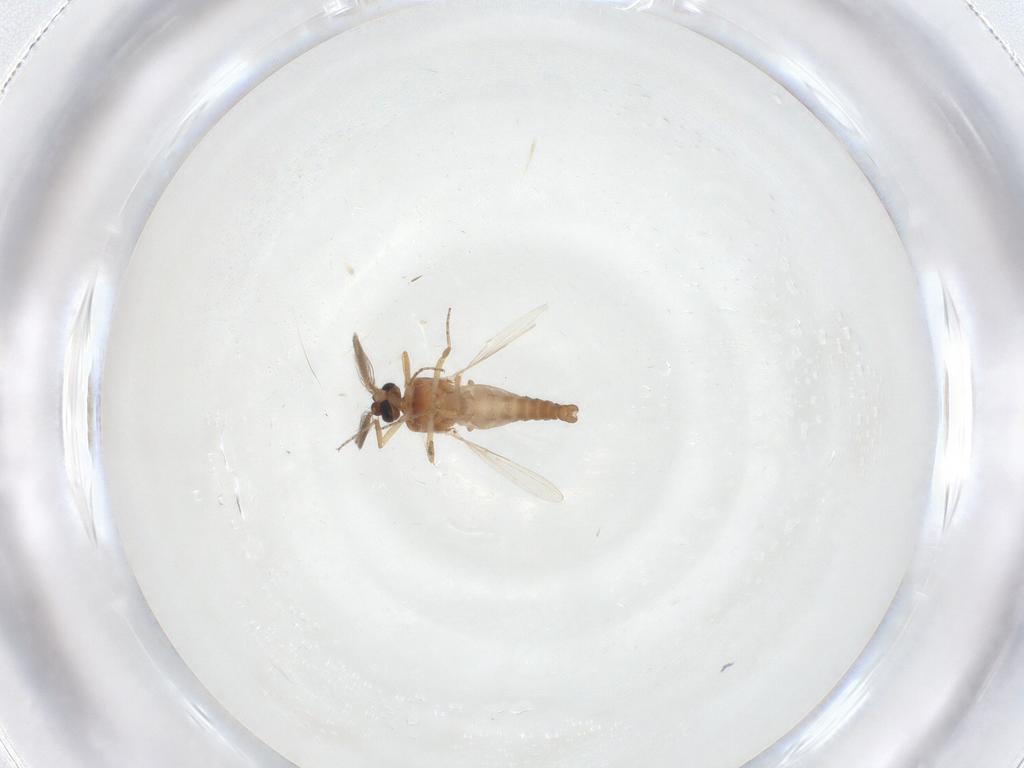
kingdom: Animalia
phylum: Arthropoda
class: Insecta
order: Diptera
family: Ceratopogonidae
